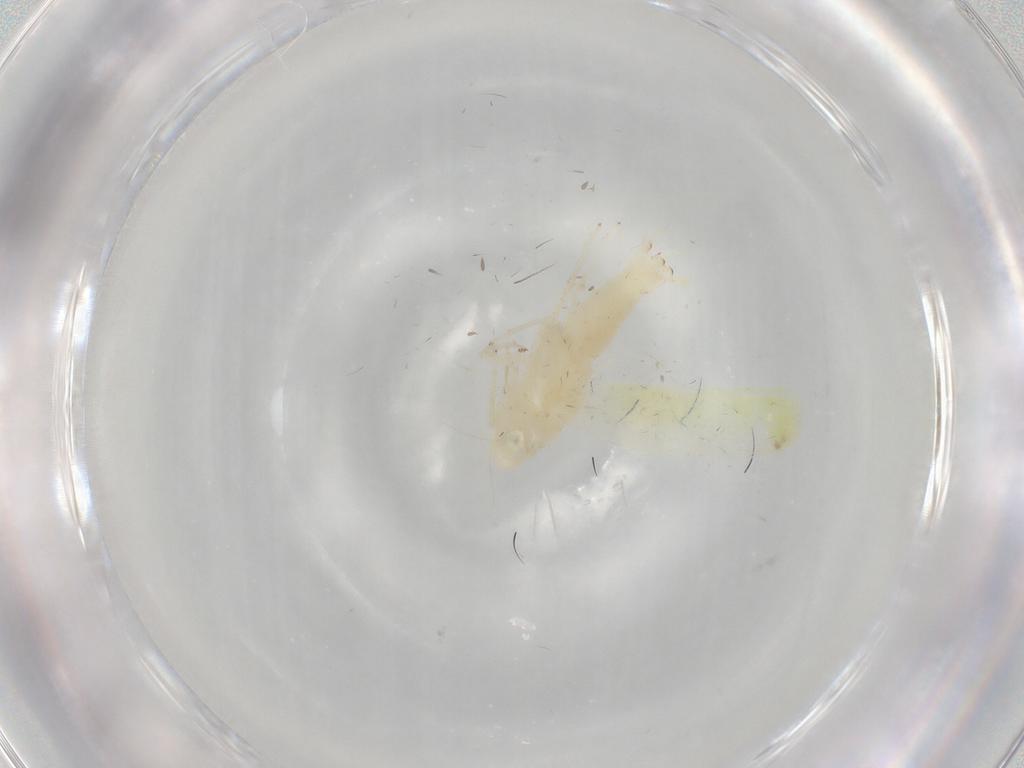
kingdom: Animalia
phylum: Arthropoda
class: Insecta
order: Hemiptera
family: Cicadellidae
